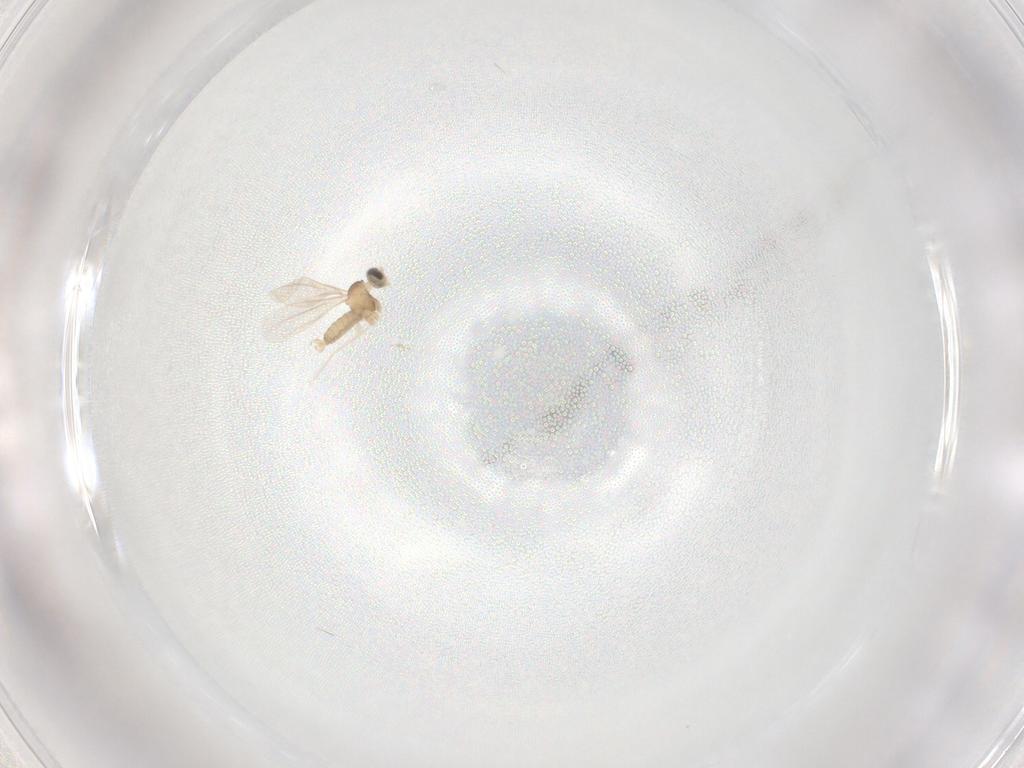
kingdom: Animalia
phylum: Arthropoda
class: Insecta
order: Diptera
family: Cecidomyiidae
